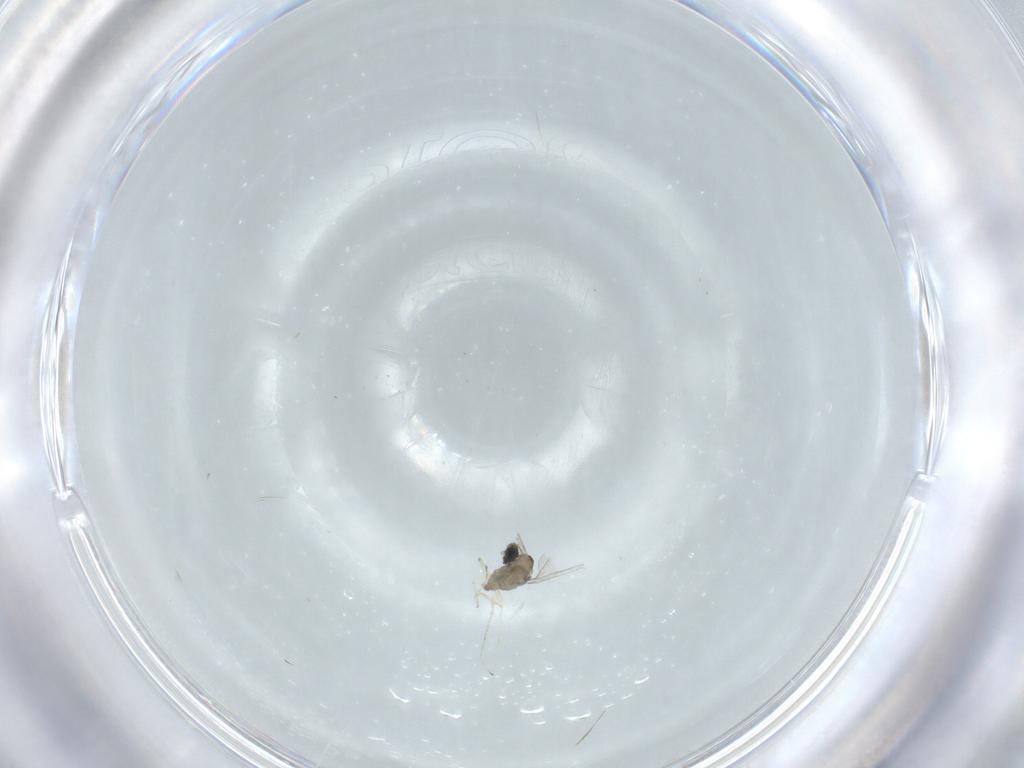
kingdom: Animalia
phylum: Arthropoda
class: Insecta
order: Diptera
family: Cecidomyiidae
